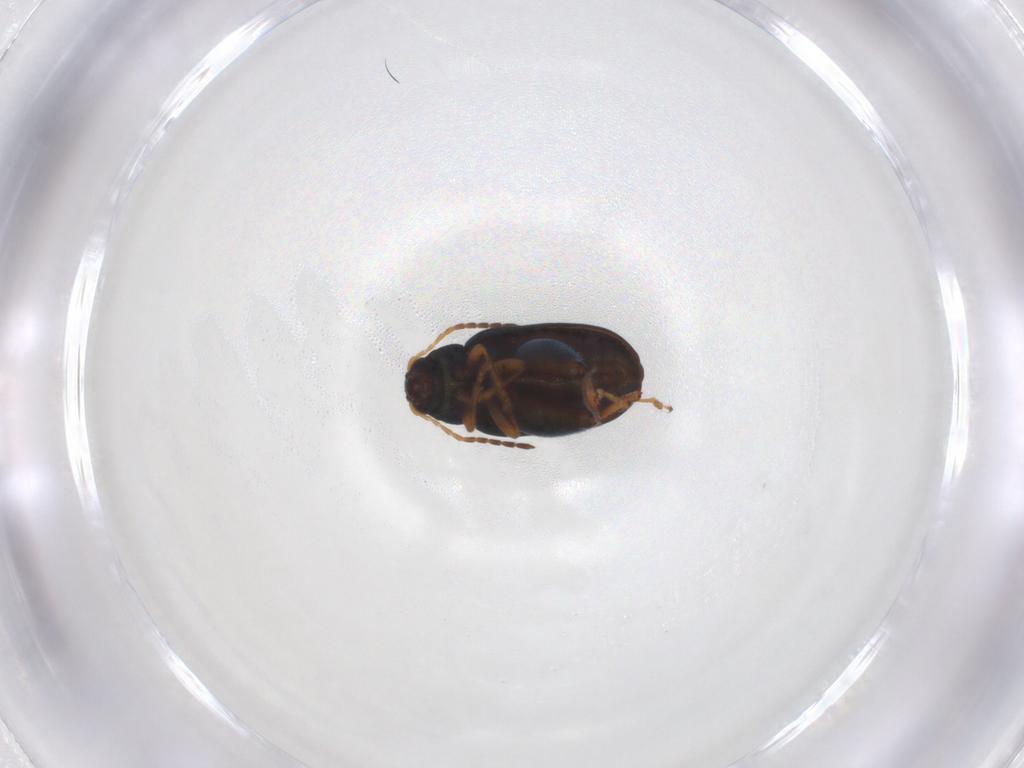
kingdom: Animalia
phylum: Arthropoda
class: Insecta
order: Coleoptera
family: Chrysomelidae
